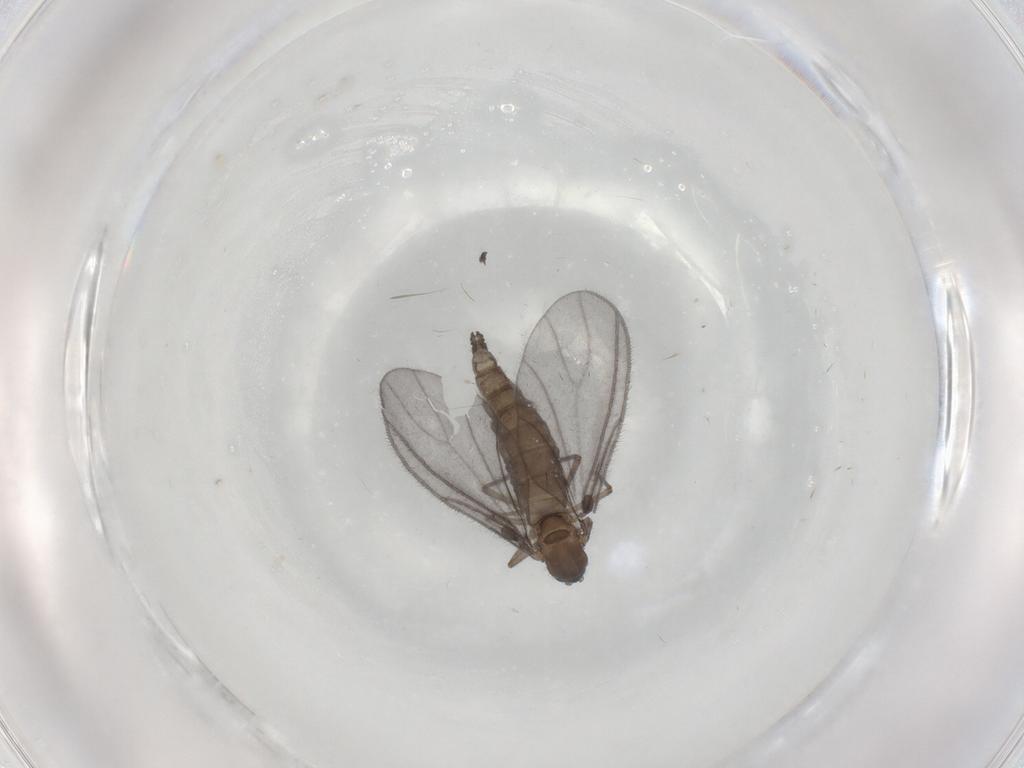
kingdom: Animalia
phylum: Arthropoda
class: Insecta
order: Diptera
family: Sciaridae
